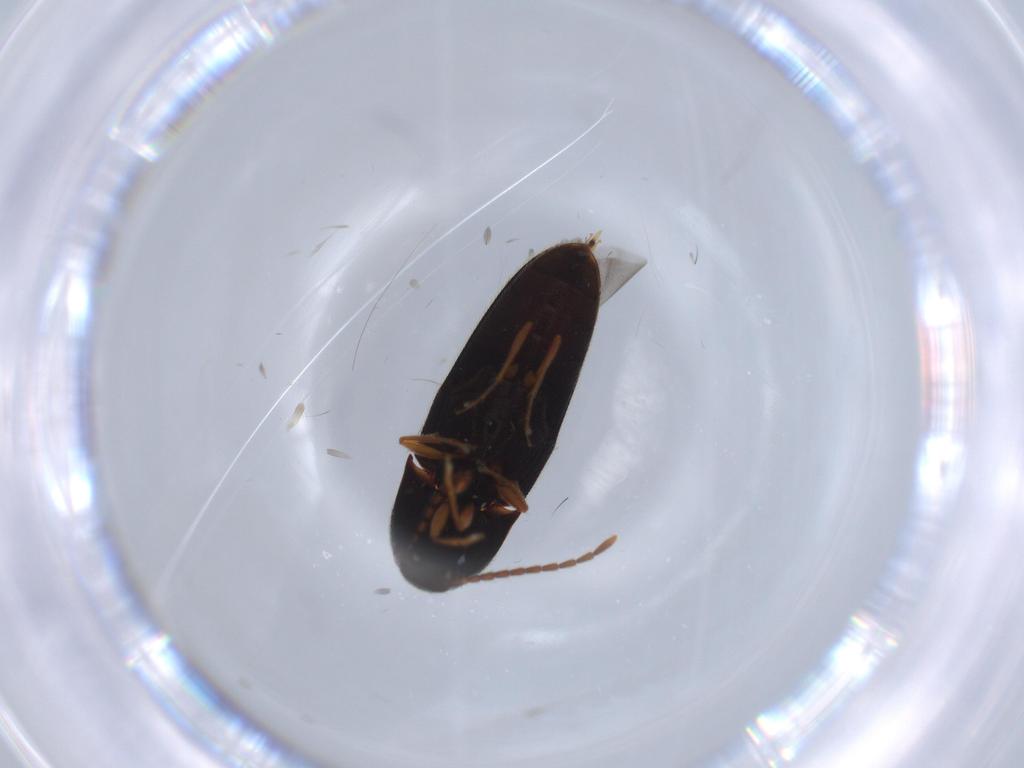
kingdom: Animalia
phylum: Arthropoda
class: Insecta
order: Coleoptera
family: Elateridae
